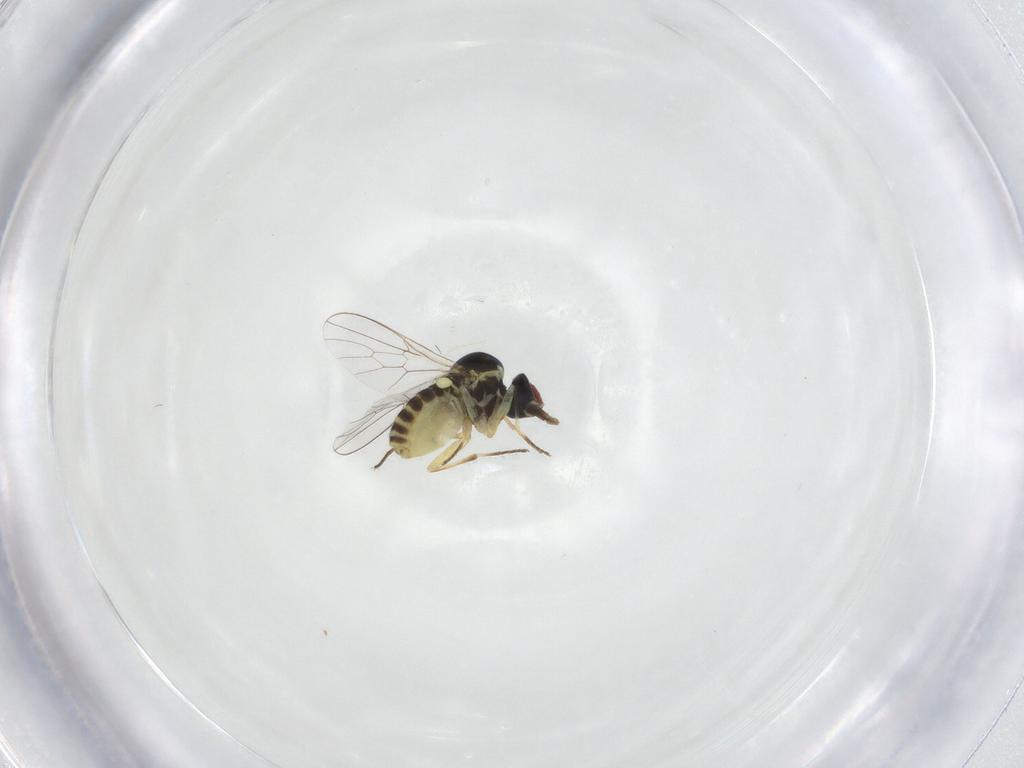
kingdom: Animalia
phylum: Arthropoda
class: Insecta
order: Diptera
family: Mythicomyiidae
